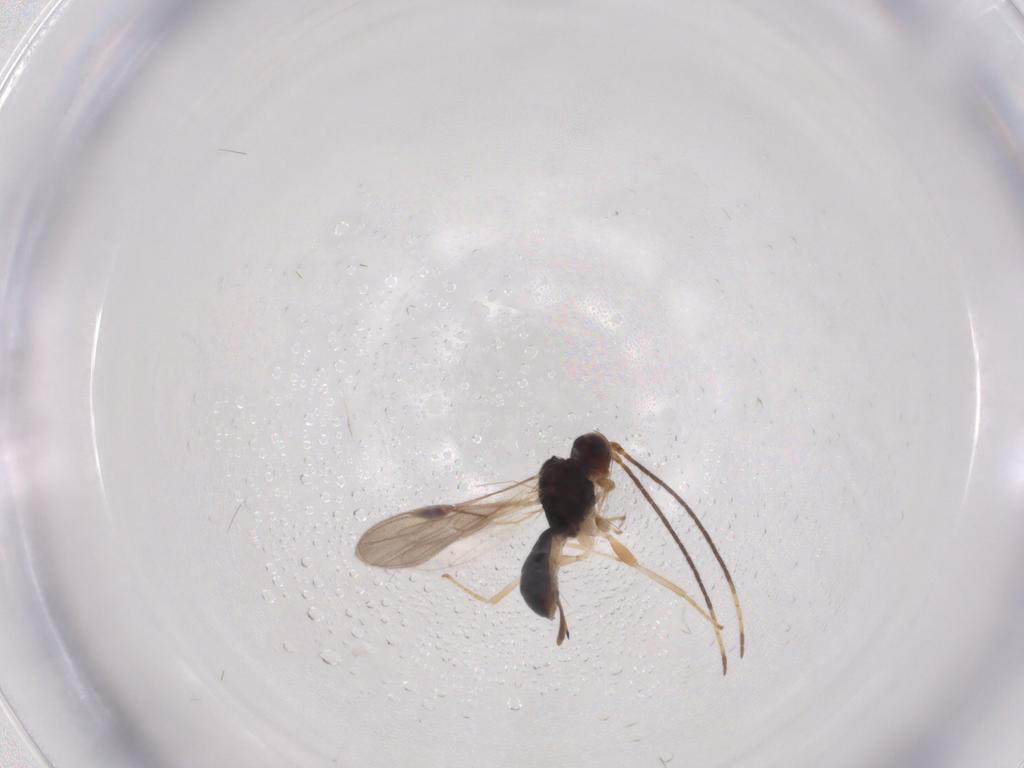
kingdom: Animalia
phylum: Arthropoda
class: Insecta
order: Hymenoptera
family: Braconidae
